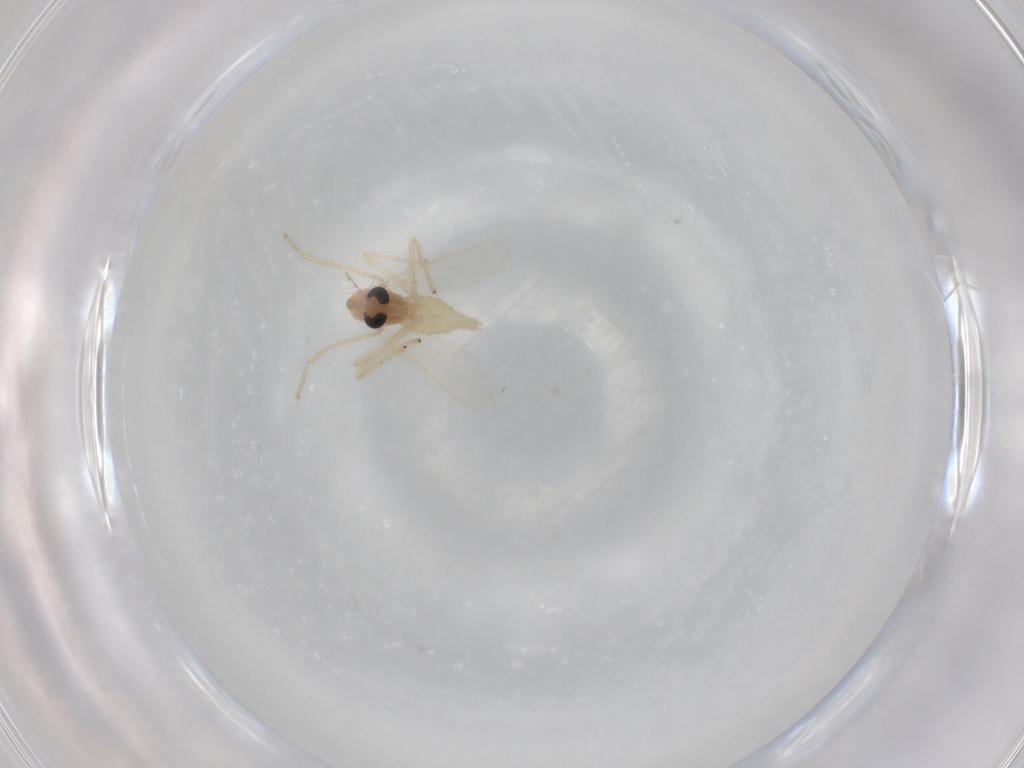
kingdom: Animalia
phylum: Arthropoda
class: Insecta
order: Diptera
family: Chironomidae
